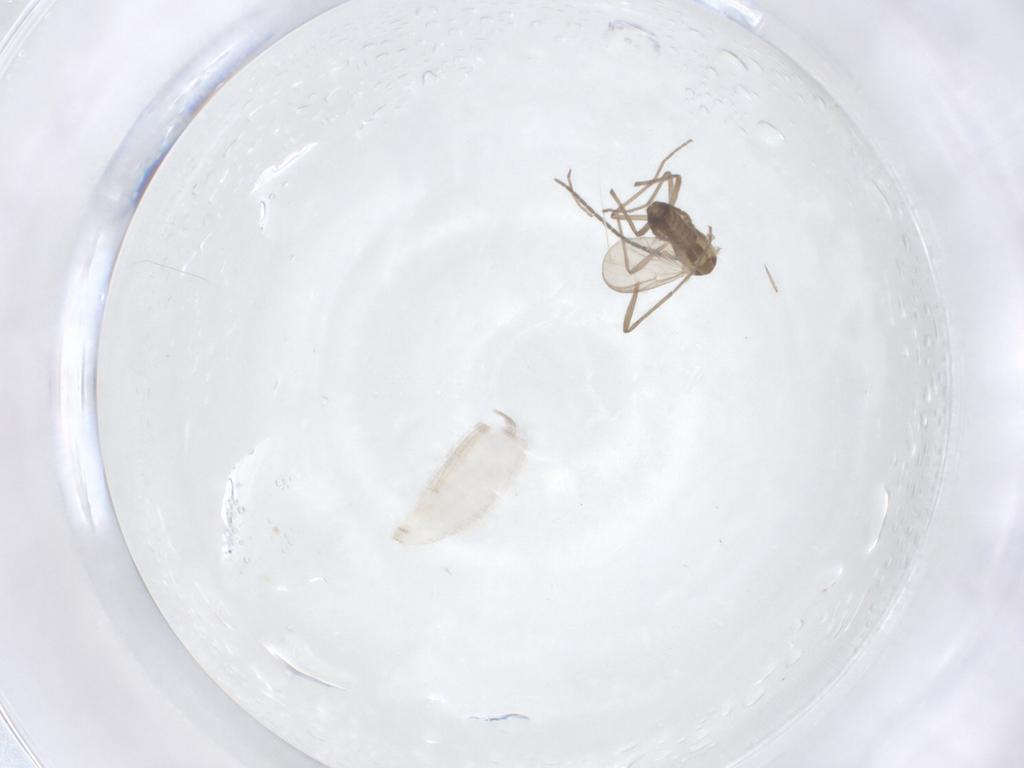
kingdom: Animalia
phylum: Arthropoda
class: Insecta
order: Diptera
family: Chironomidae
